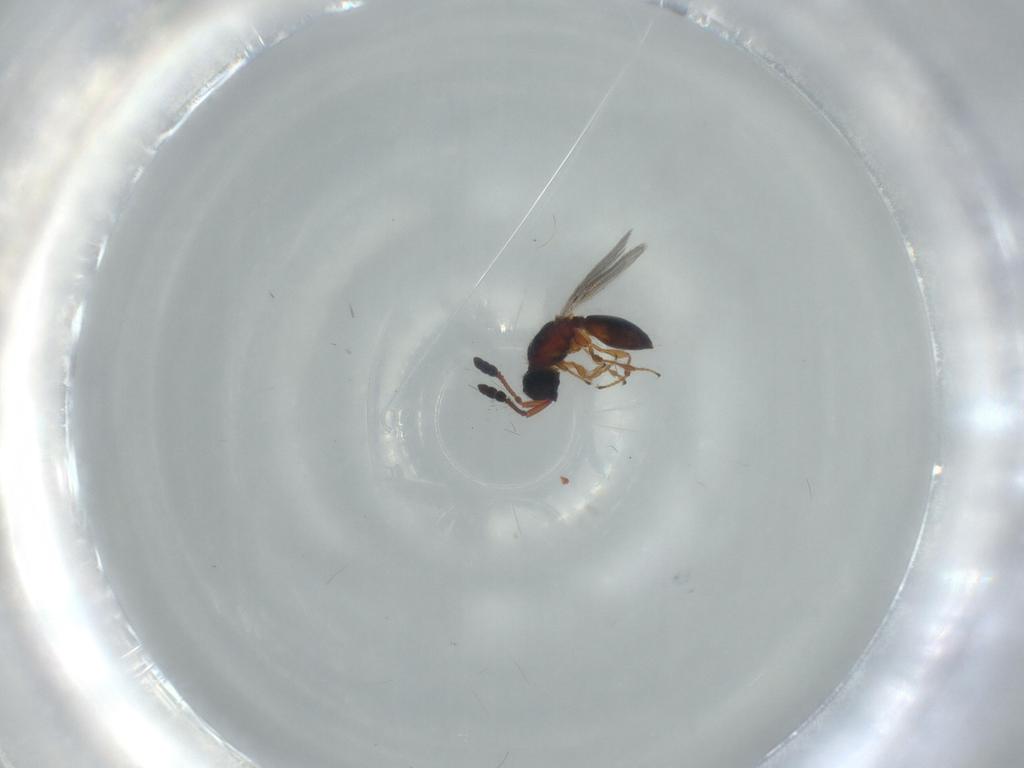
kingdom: Animalia
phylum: Arthropoda
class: Insecta
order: Hymenoptera
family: Diapriidae
